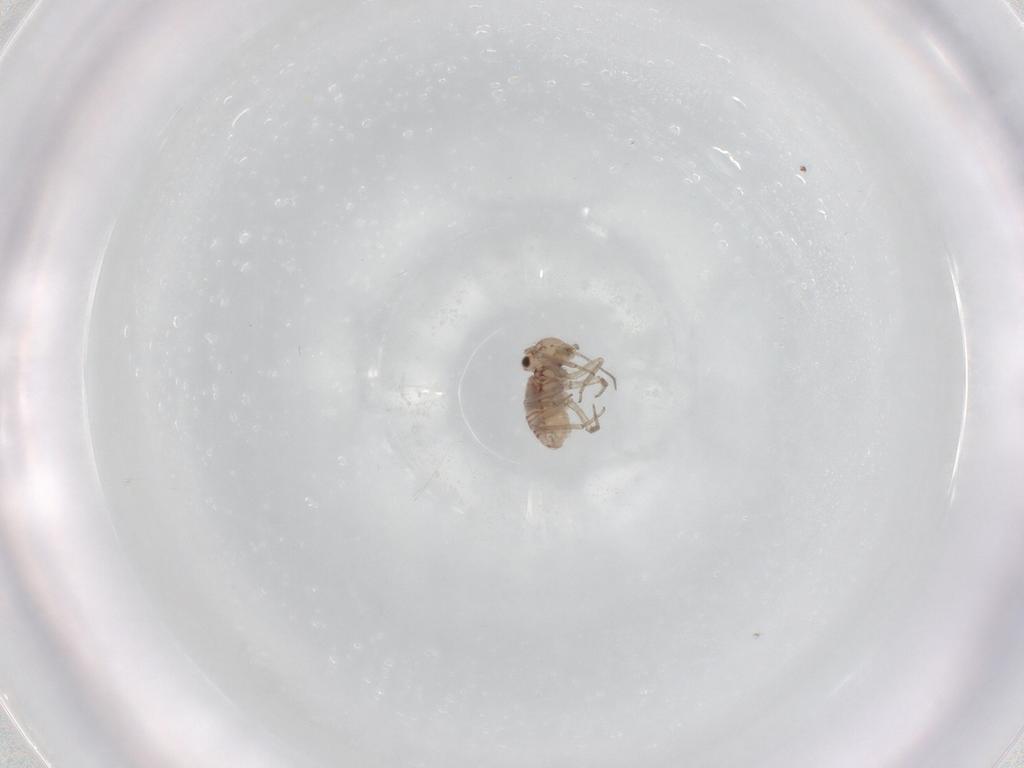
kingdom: Animalia
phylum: Arthropoda
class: Insecta
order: Psocodea
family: Lachesillidae
